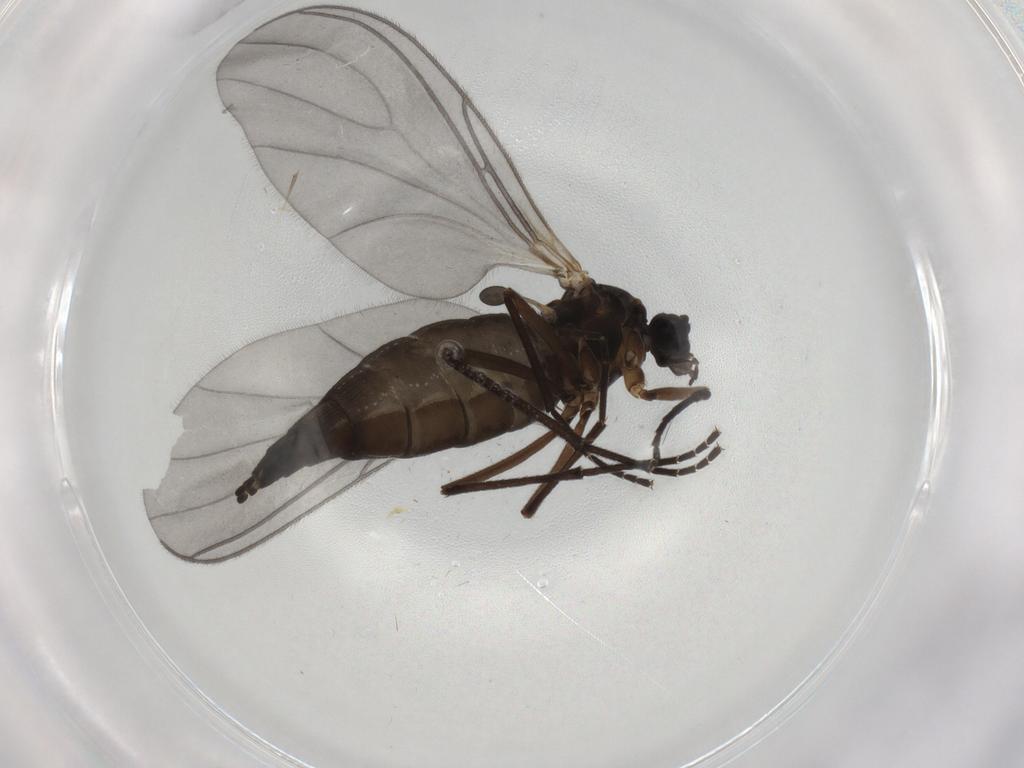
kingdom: Animalia
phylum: Arthropoda
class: Insecta
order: Diptera
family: Sciaridae
